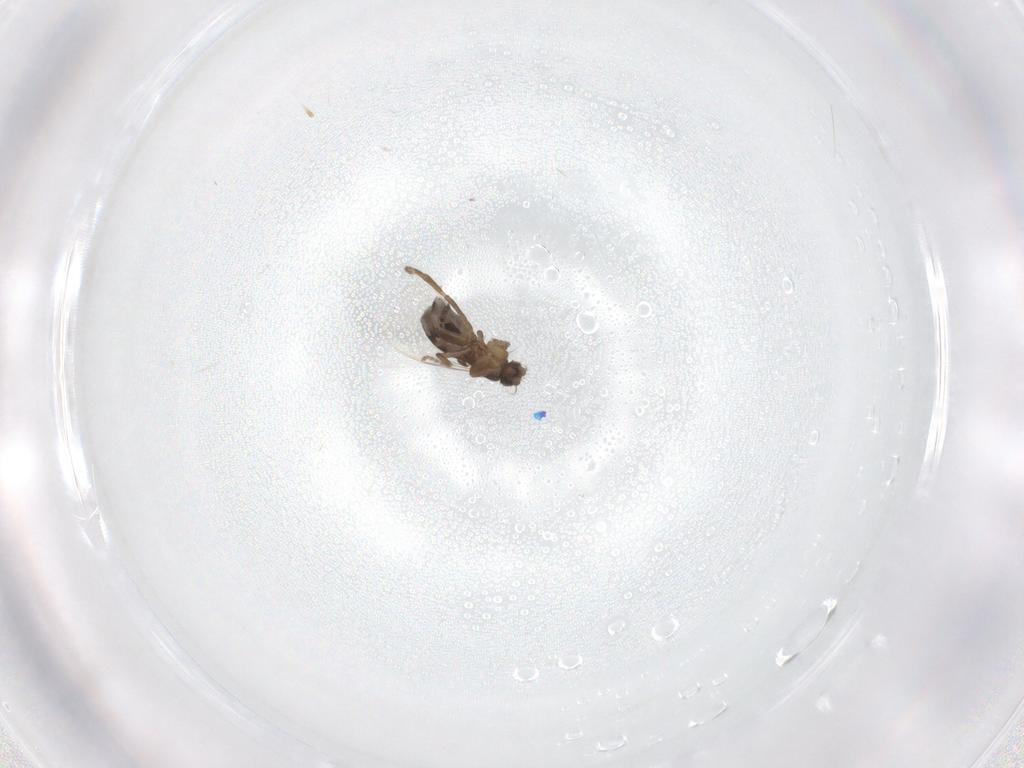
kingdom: Animalia
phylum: Arthropoda
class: Insecta
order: Diptera
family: Phoridae
